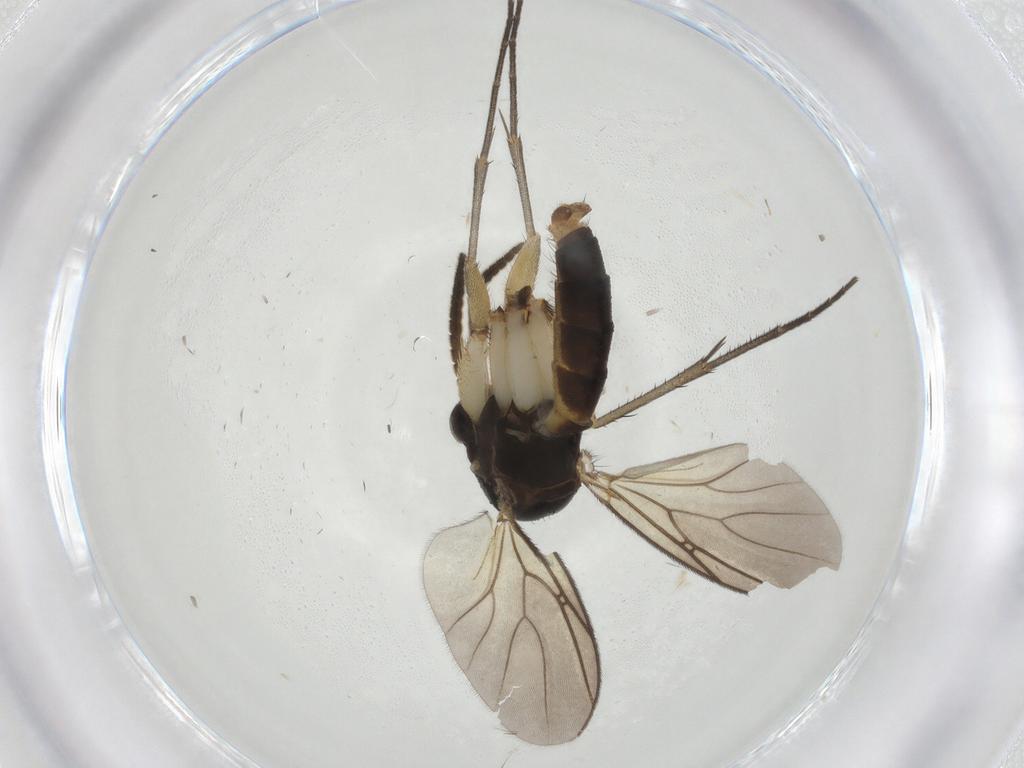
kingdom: Animalia
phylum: Arthropoda
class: Insecta
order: Diptera
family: Sciaridae
